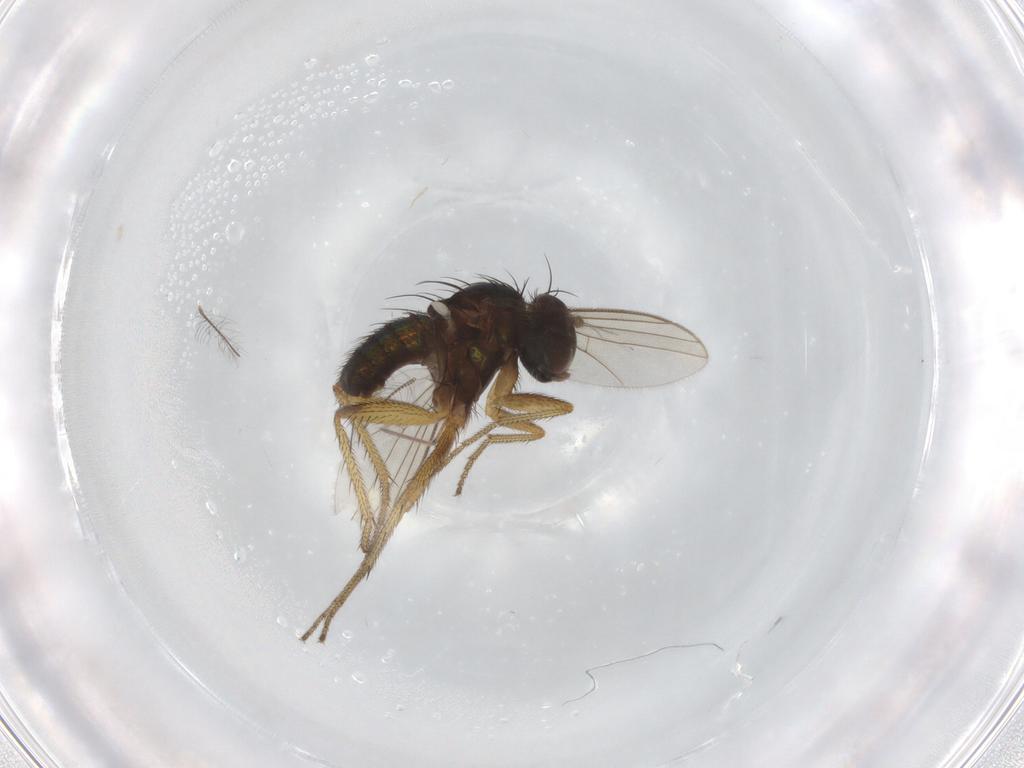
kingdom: Animalia
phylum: Arthropoda
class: Insecta
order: Diptera
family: Chironomidae
